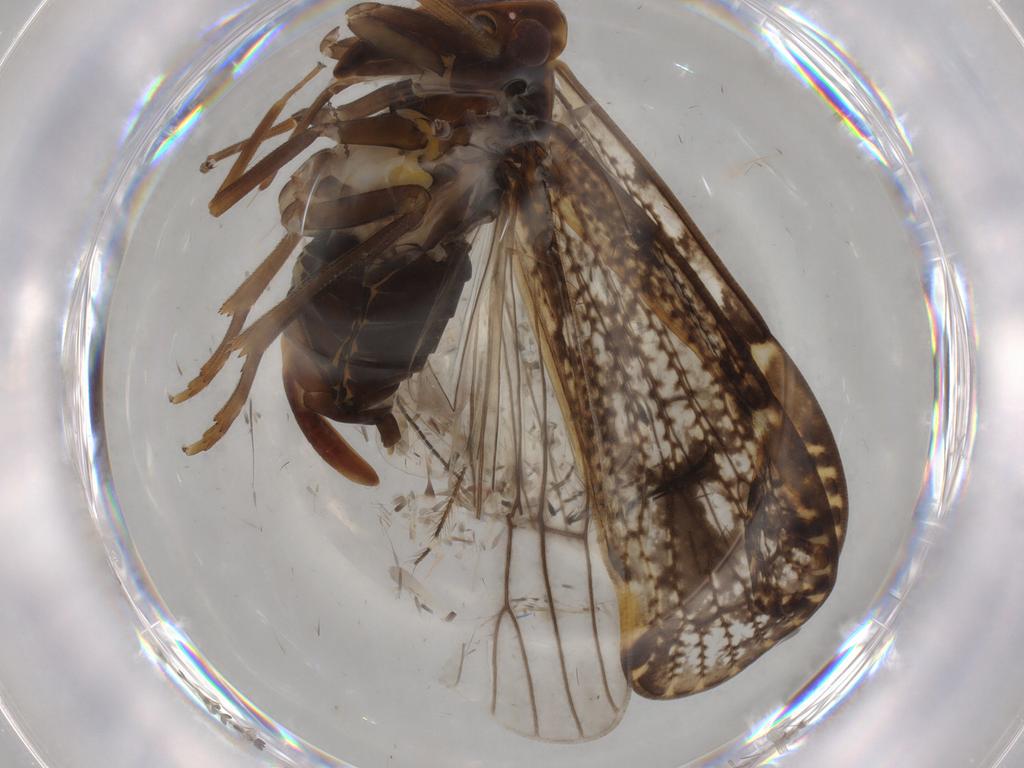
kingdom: Animalia
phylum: Arthropoda
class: Insecta
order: Hemiptera
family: Cixiidae
